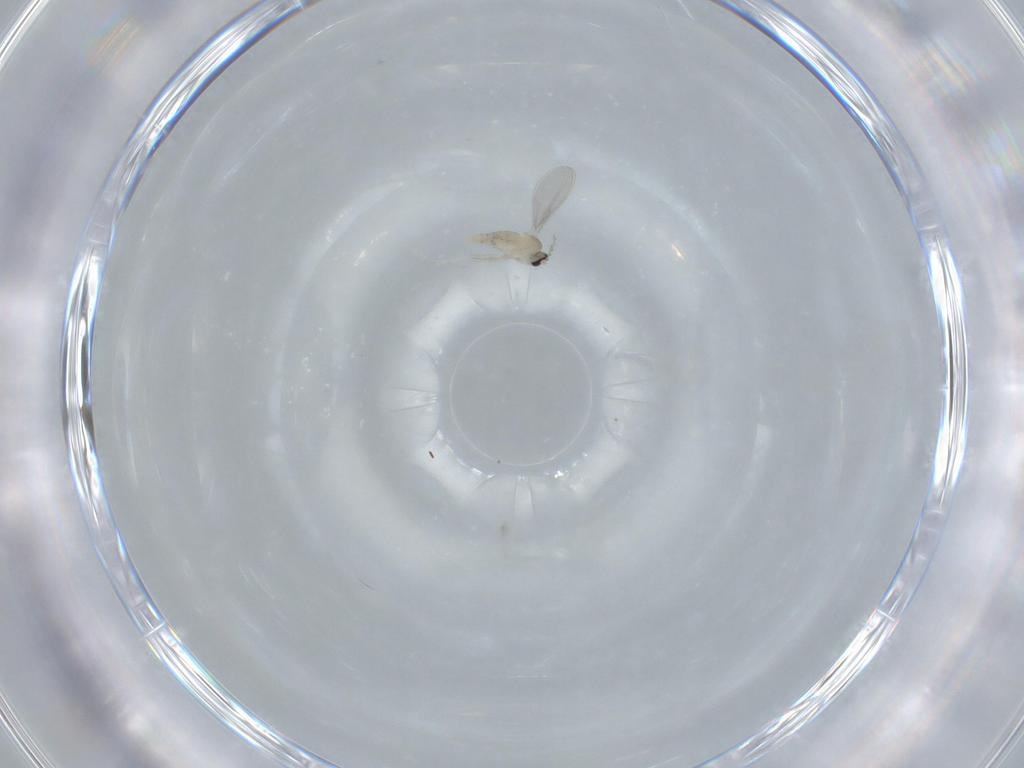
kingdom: Animalia
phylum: Arthropoda
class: Insecta
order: Diptera
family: Cecidomyiidae
